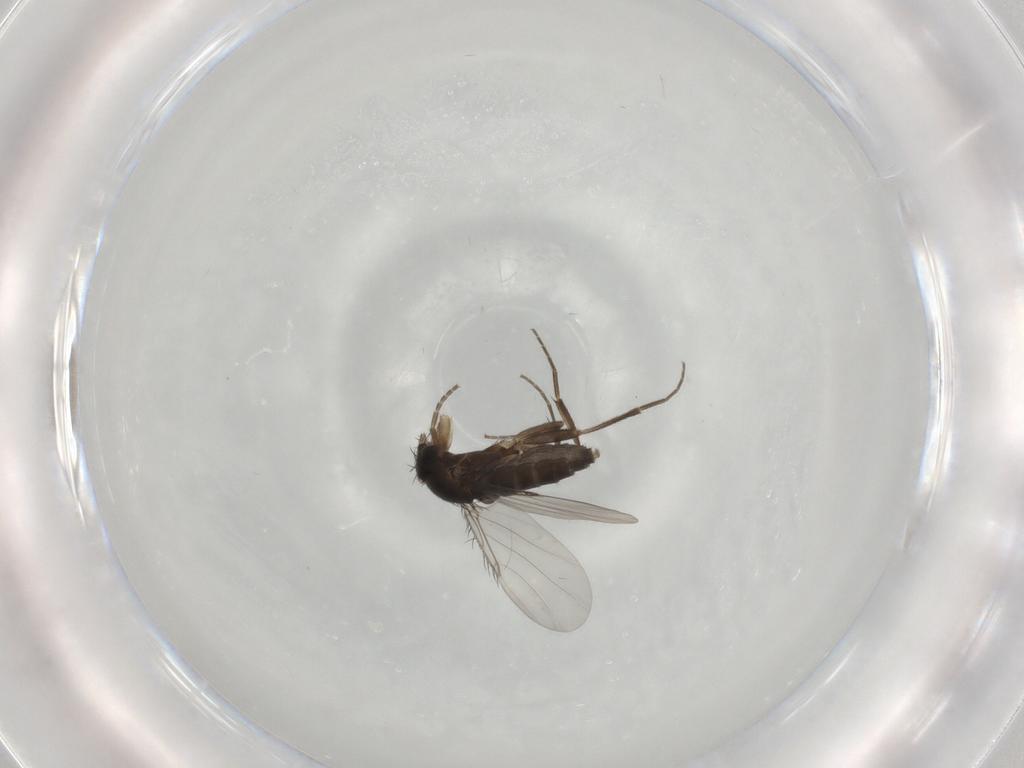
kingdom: Animalia
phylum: Arthropoda
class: Insecta
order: Diptera
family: Phoridae
